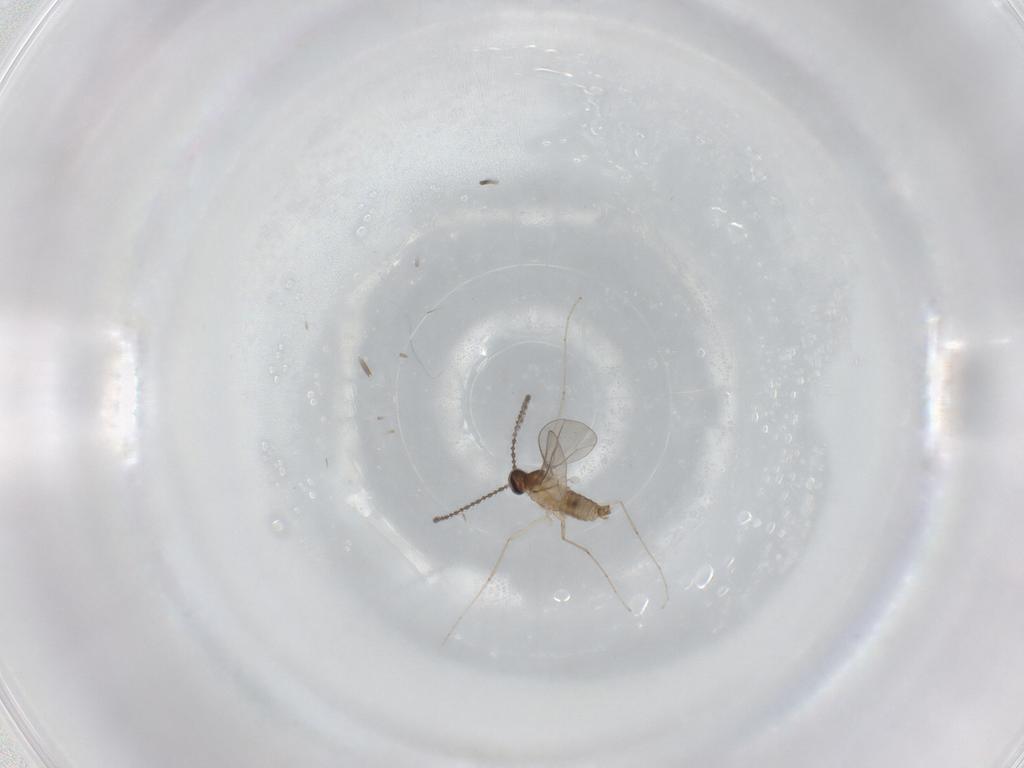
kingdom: Animalia
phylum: Arthropoda
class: Insecta
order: Diptera
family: Cecidomyiidae
